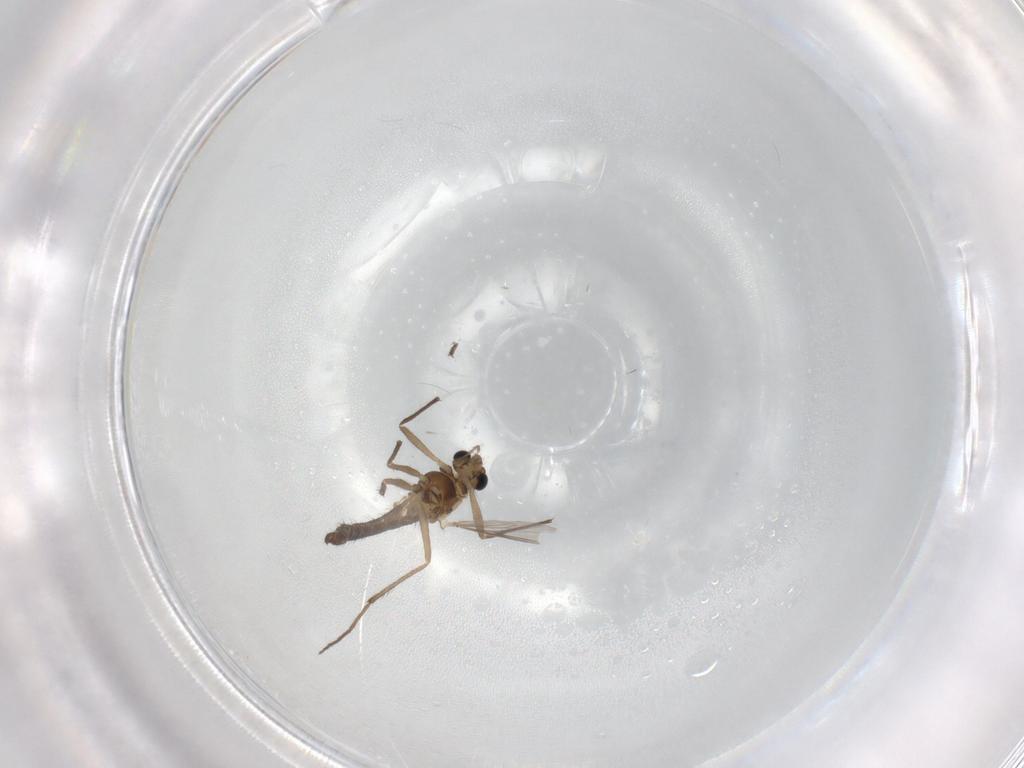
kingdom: Animalia
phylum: Arthropoda
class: Insecta
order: Diptera
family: Chironomidae
